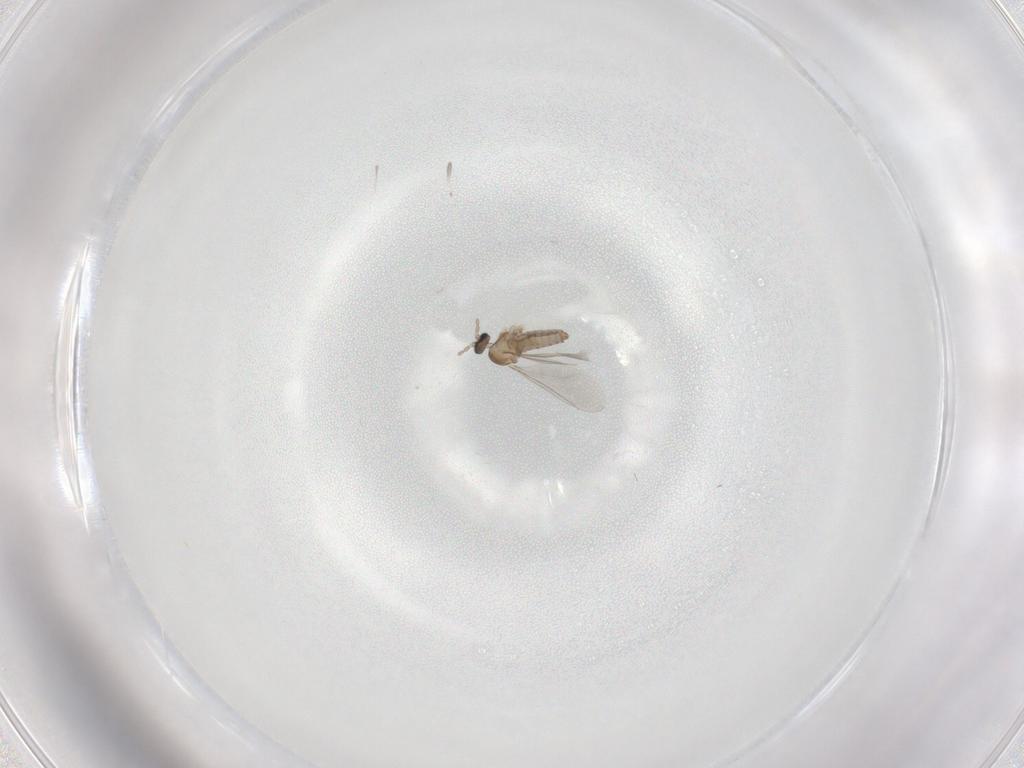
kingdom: Animalia
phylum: Arthropoda
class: Insecta
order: Diptera
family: Cecidomyiidae
